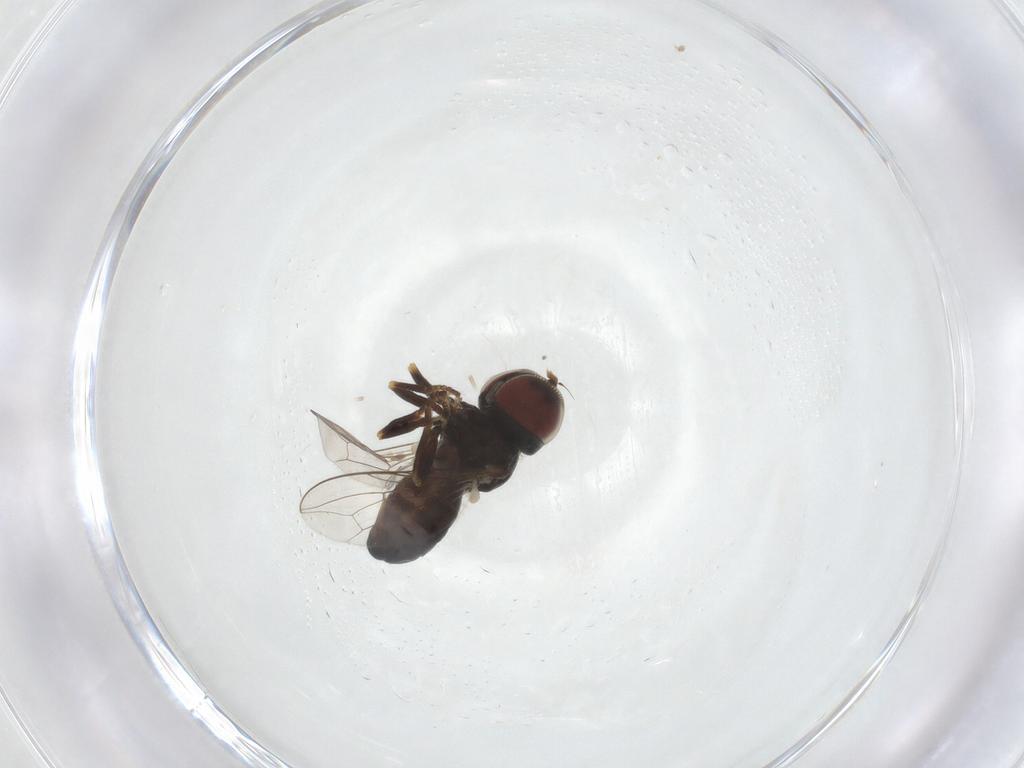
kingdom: Animalia
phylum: Arthropoda
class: Insecta
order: Diptera
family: Pipunculidae
